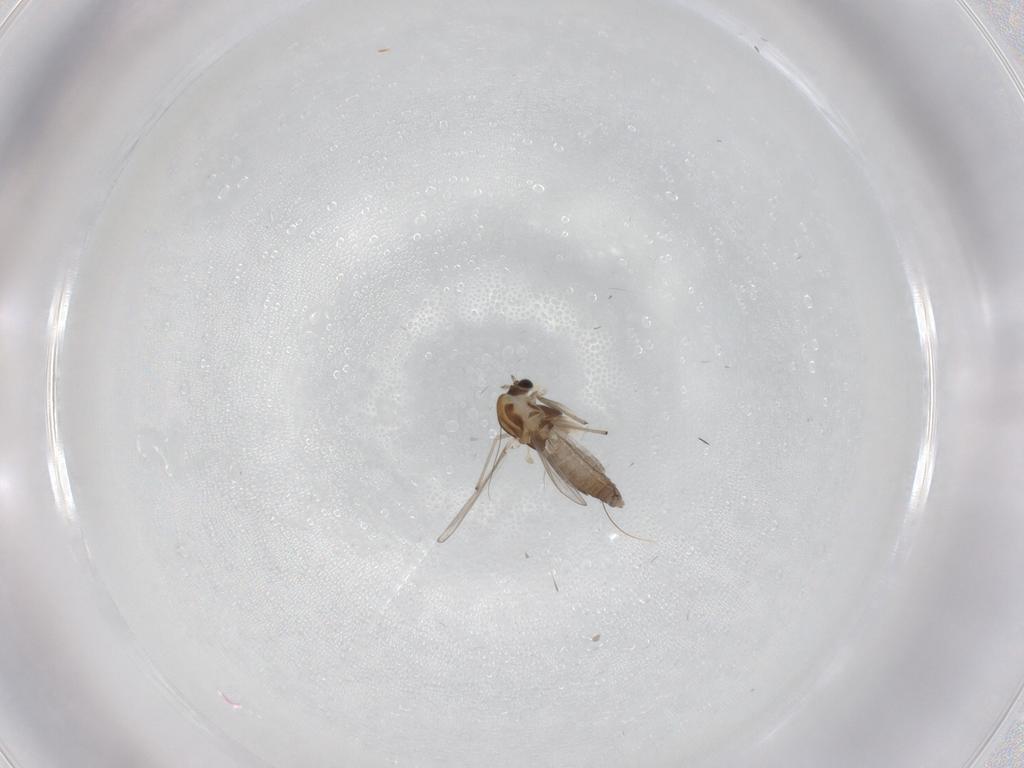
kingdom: Animalia
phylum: Arthropoda
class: Insecta
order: Diptera
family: Chironomidae
